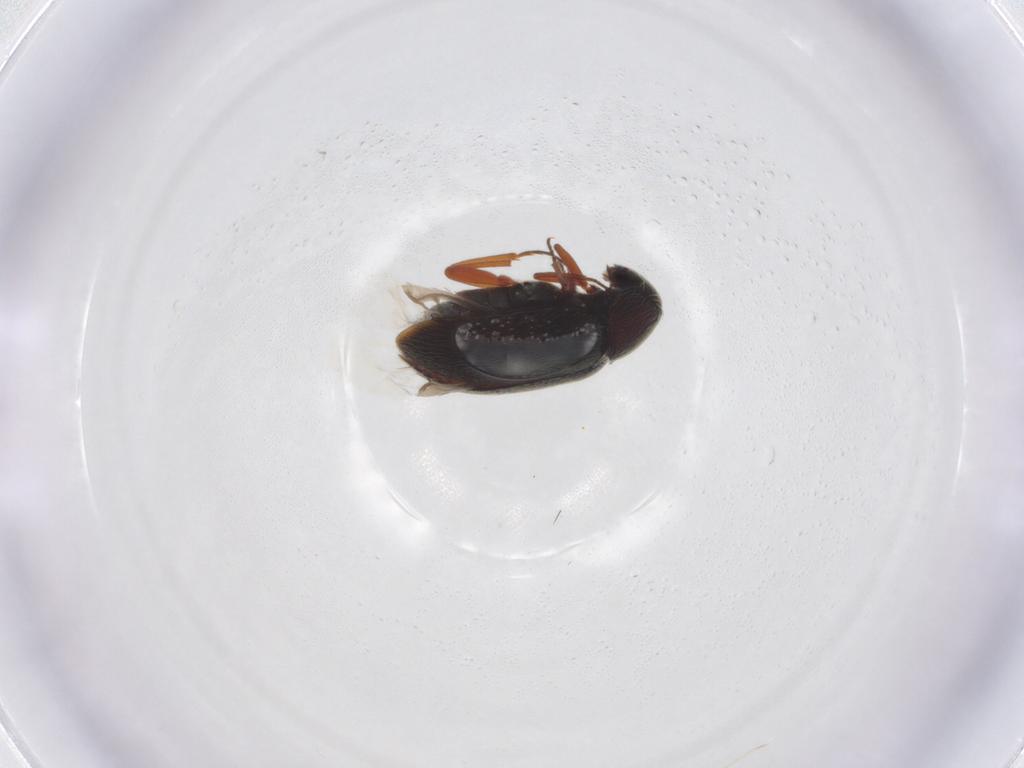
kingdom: Animalia
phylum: Arthropoda
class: Insecta
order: Coleoptera
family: Rhadalidae
